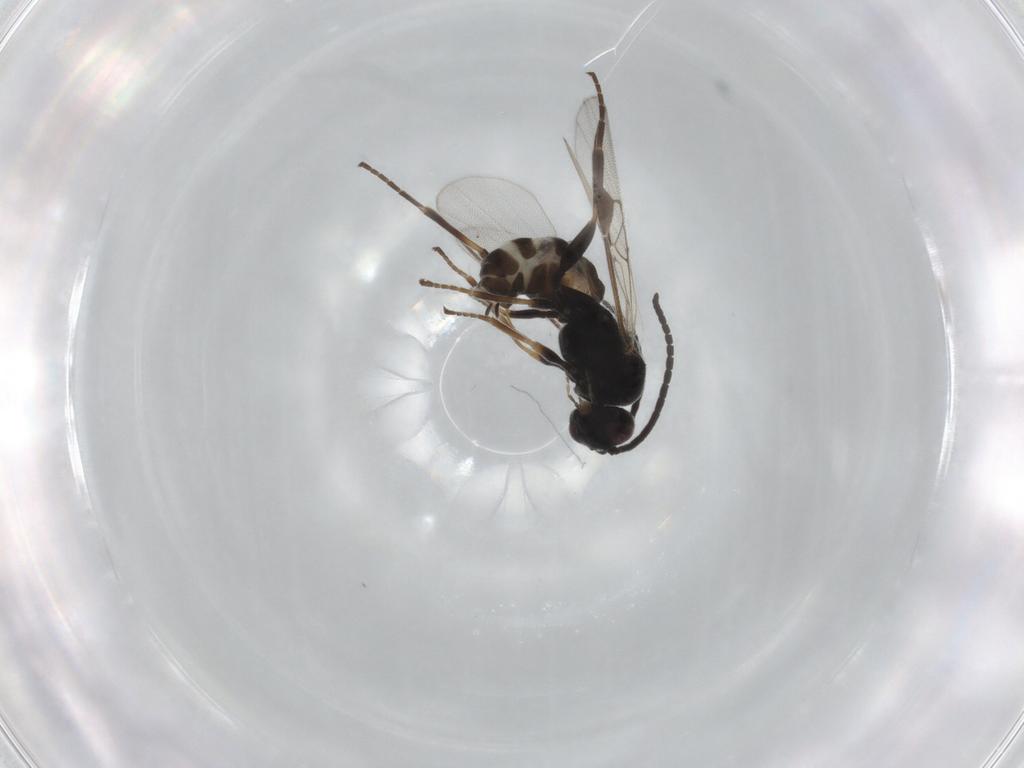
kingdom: Animalia
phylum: Arthropoda
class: Insecta
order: Hymenoptera
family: Braconidae
